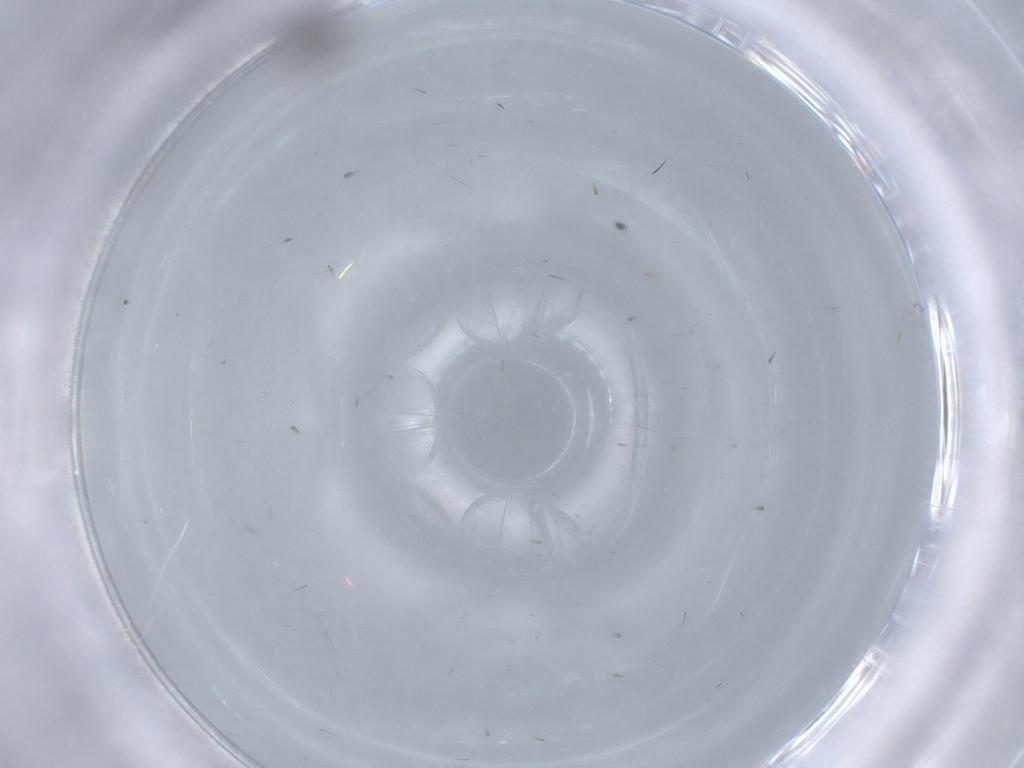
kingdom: Animalia
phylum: Arthropoda
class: Insecta
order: Diptera
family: Cecidomyiidae
